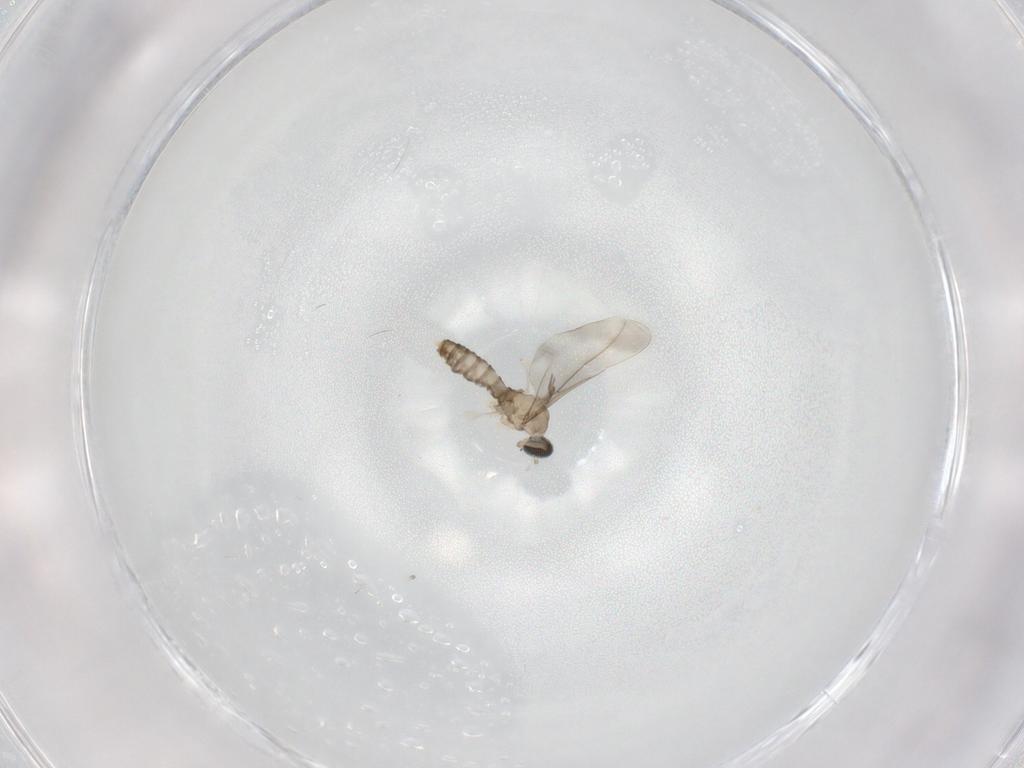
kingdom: Animalia
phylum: Arthropoda
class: Insecta
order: Diptera
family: Cecidomyiidae
